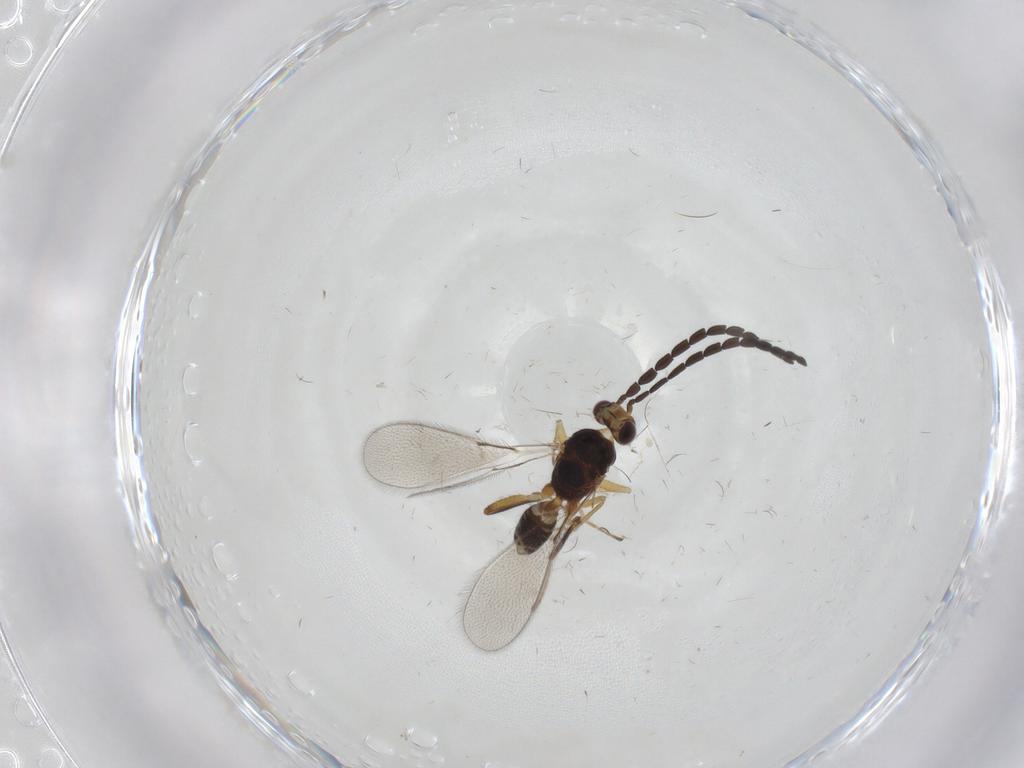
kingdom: Animalia
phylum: Arthropoda
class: Insecta
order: Hymenoptera
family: Mymaridae
